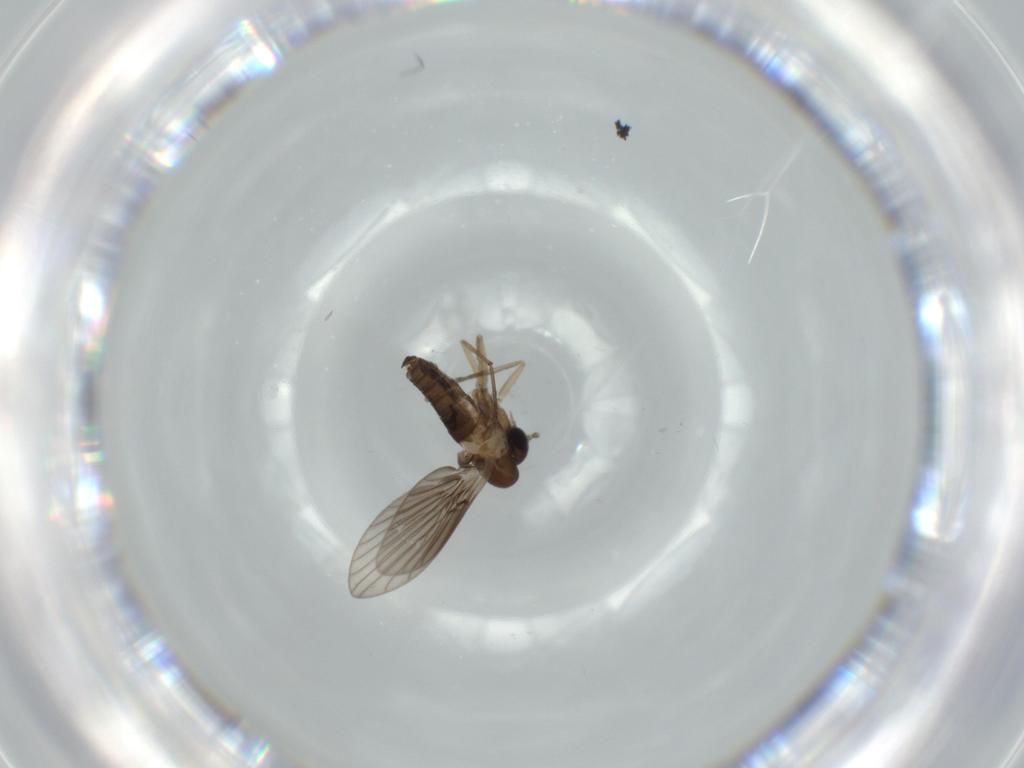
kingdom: Animalia
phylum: Arthropoda
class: Insecta
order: Diptera
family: Psychodidae
